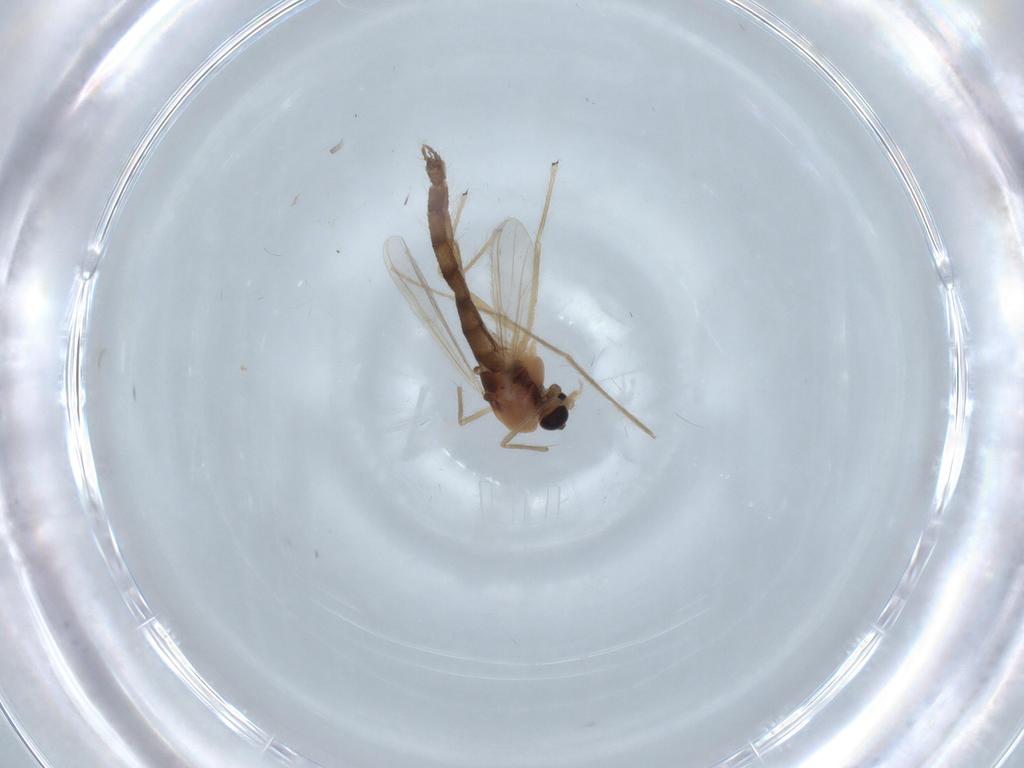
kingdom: Animalia
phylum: Arthropoda
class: Insecta
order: Diptera
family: Chironomidae
